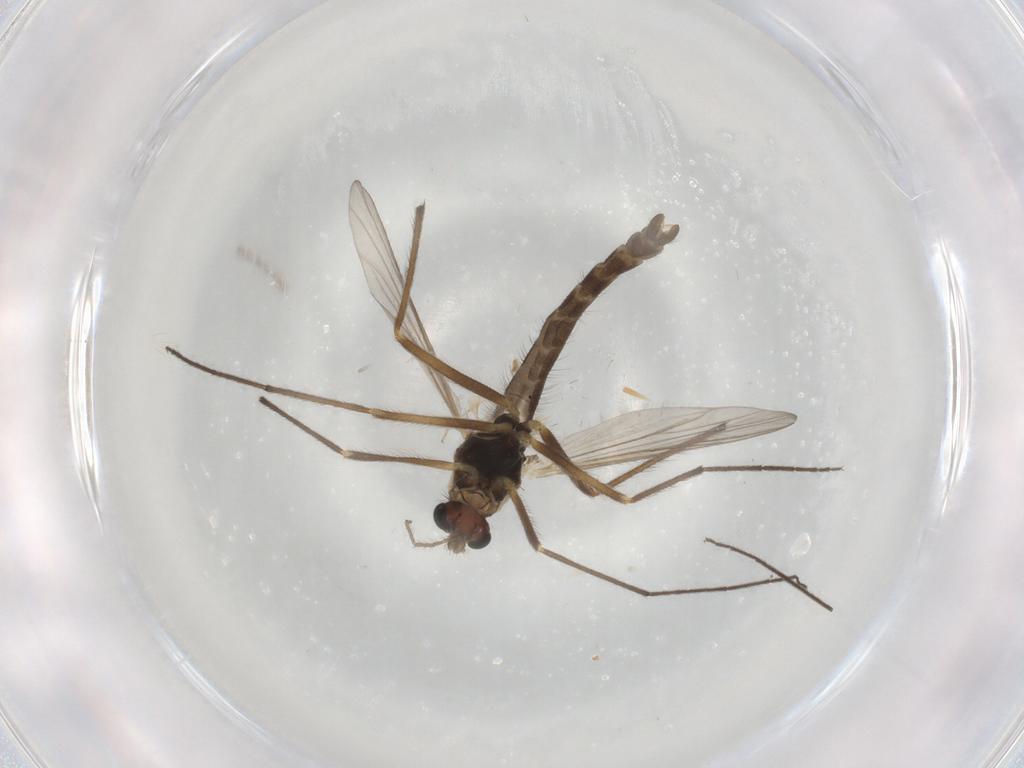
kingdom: Animalia
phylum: Arthropoda
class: Insecta
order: Diptera
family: Chironomidae
